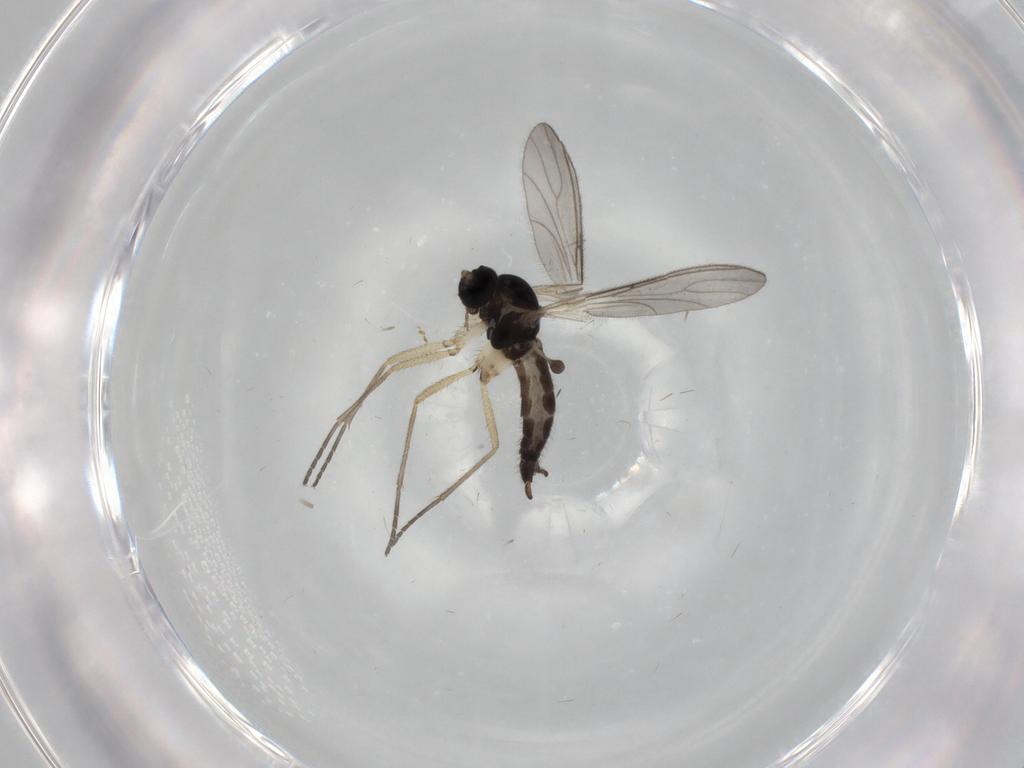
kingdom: Animalia
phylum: Arthropoda
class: Insecta
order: Diptera
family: Sciaridae
